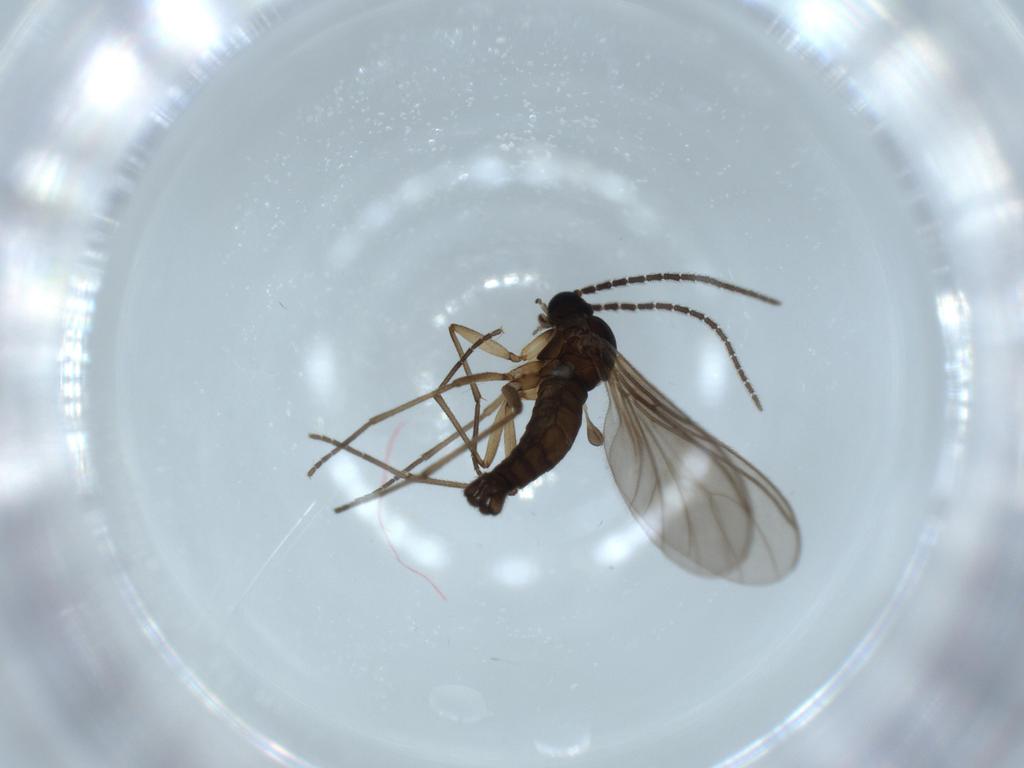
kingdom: Animalia
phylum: Arthropoda
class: Insecta
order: Diptera
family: Sciaridae
